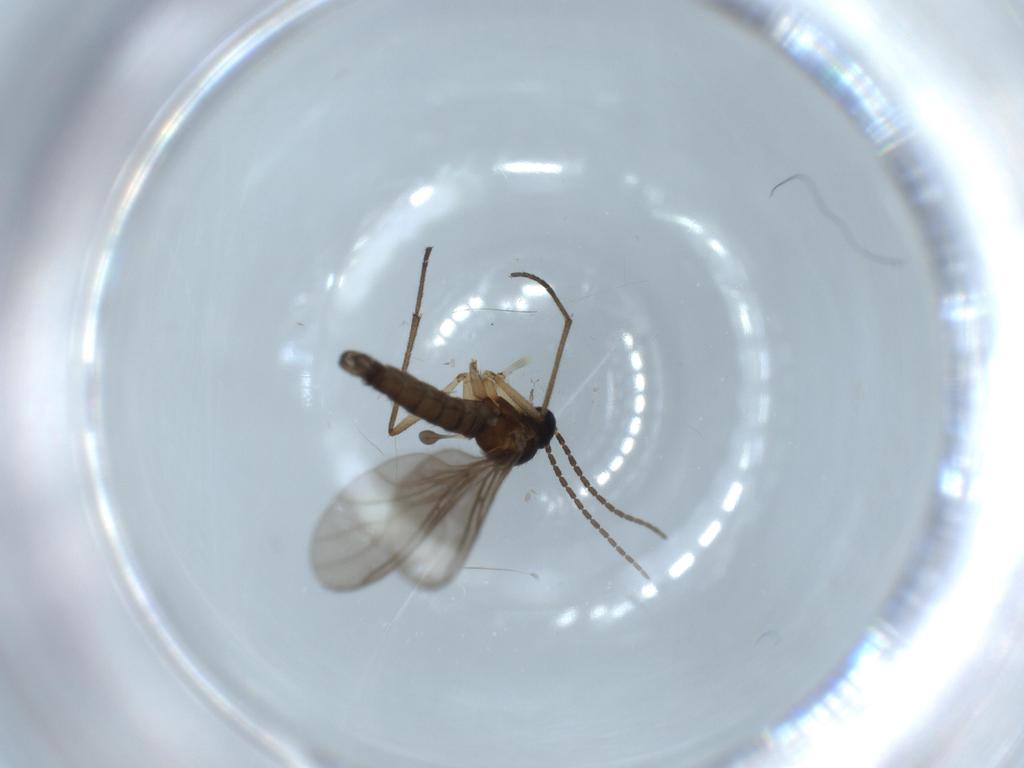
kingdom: Animalia
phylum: Arthropoda
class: Insecta
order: Diptera
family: Sciaridae
